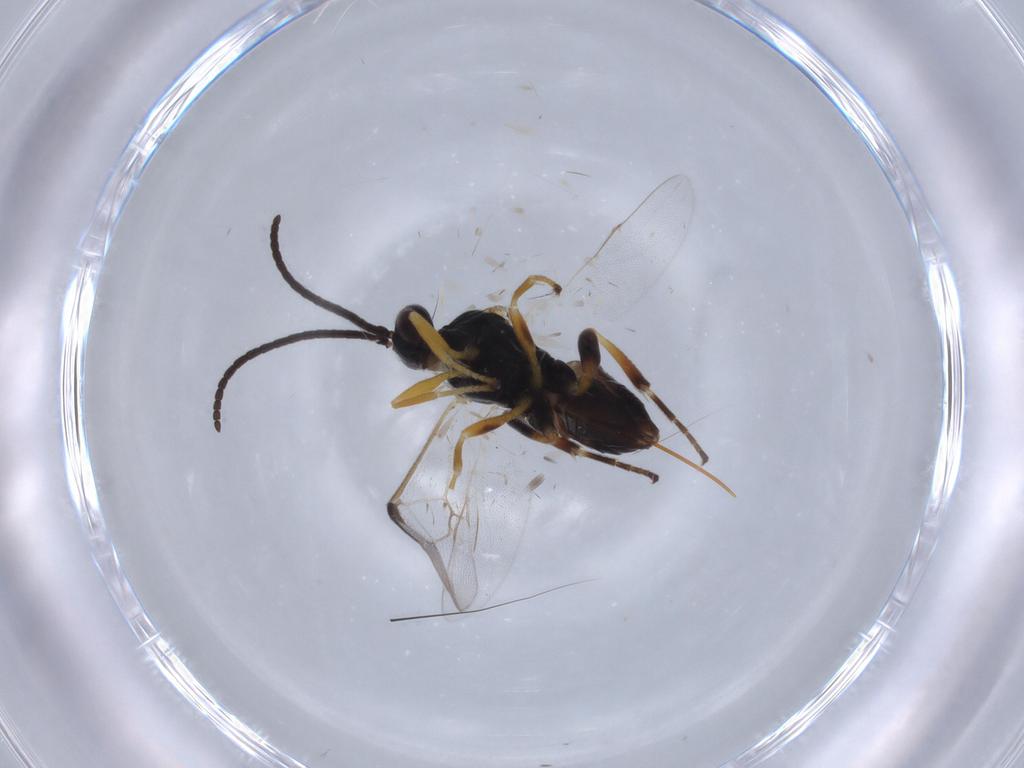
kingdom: Animalia
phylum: Arthropoda
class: Insecta
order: Hymenoptera
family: Braconidae
